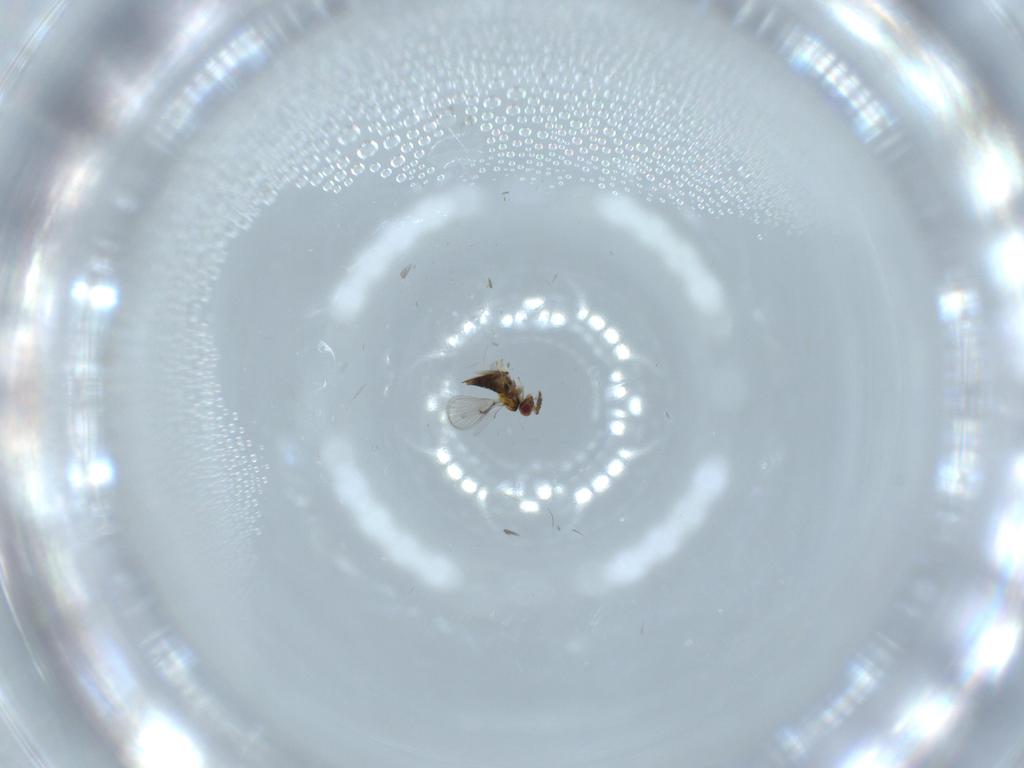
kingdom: Animalia
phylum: Arthropoda
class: Insecta
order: Hymenoptera
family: Trichogrammatidae
